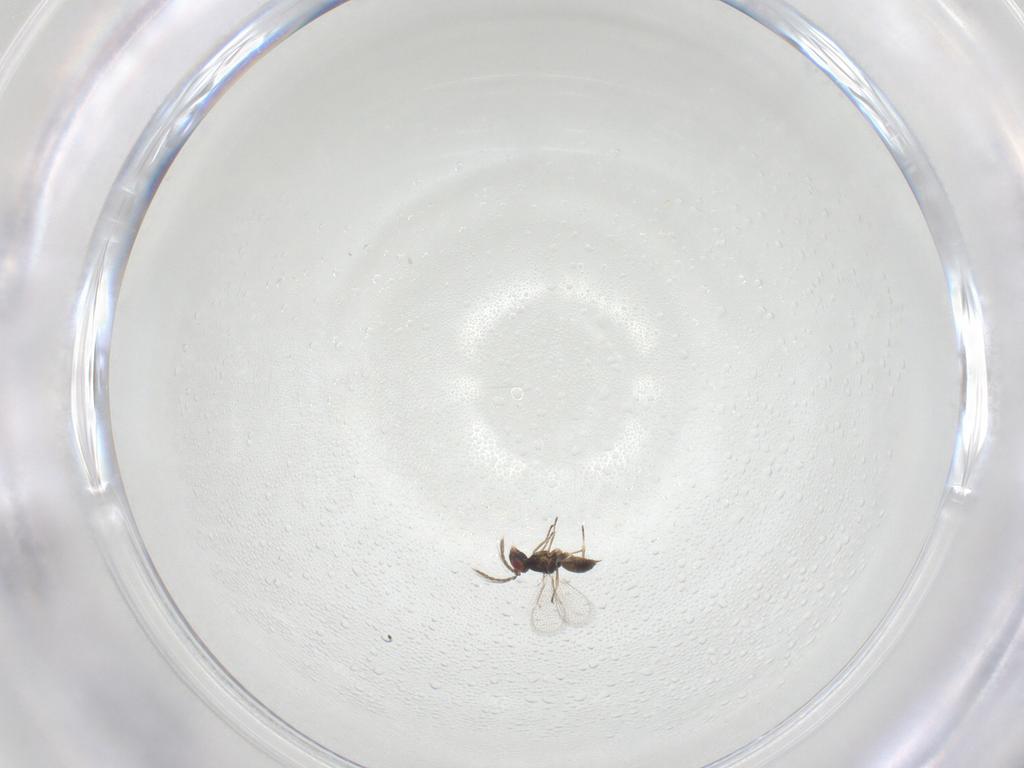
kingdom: Animalia
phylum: Arthropoda
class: Insecta
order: Hymenoptera
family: Eulophidae
